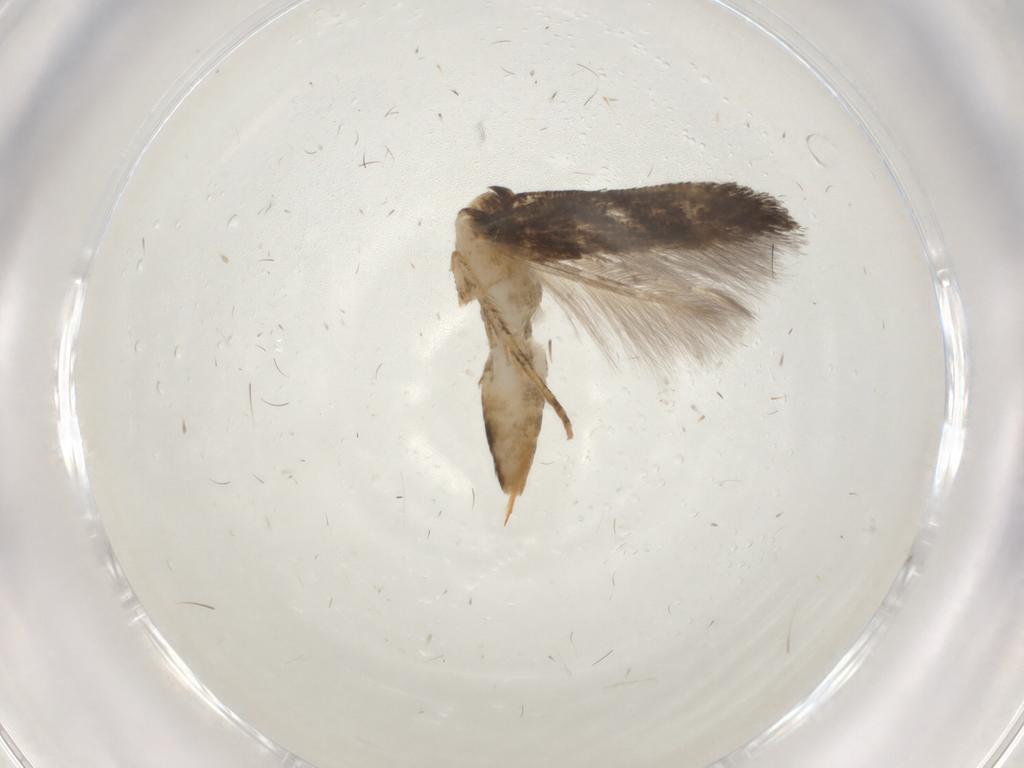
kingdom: Animalia
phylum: Arthropoda
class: Insecta
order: Lepidoptera
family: Cosmopterigidae
